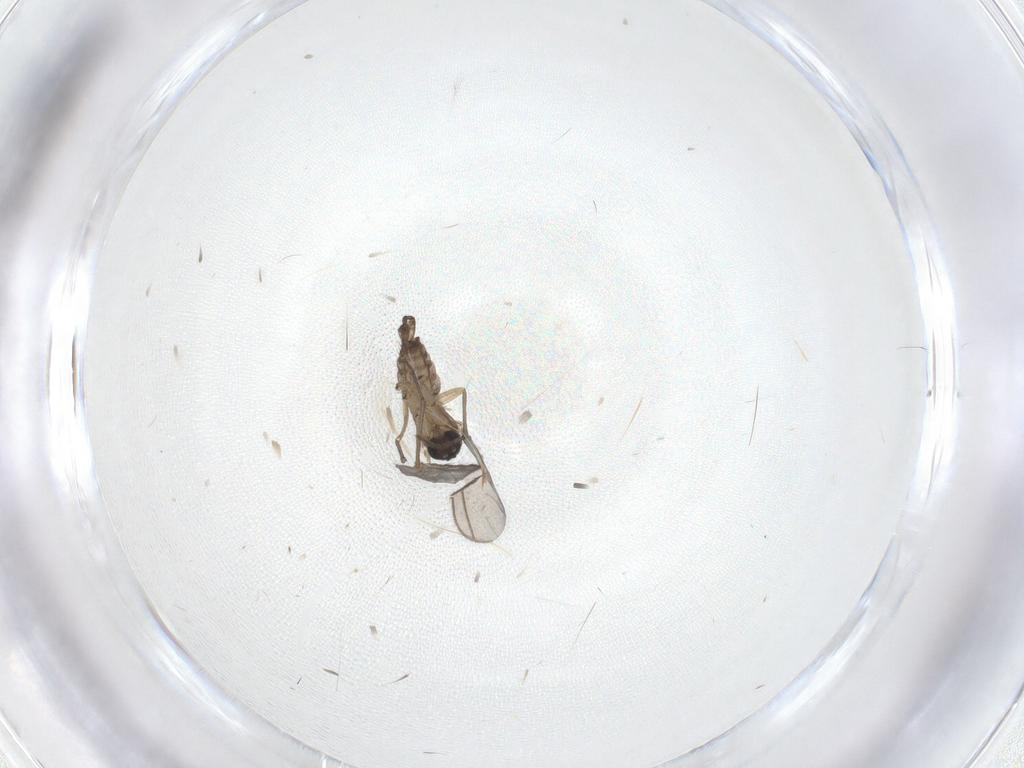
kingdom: Animalia
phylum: Arthropoda
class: Insecta
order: Diptera
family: Sciaridae
